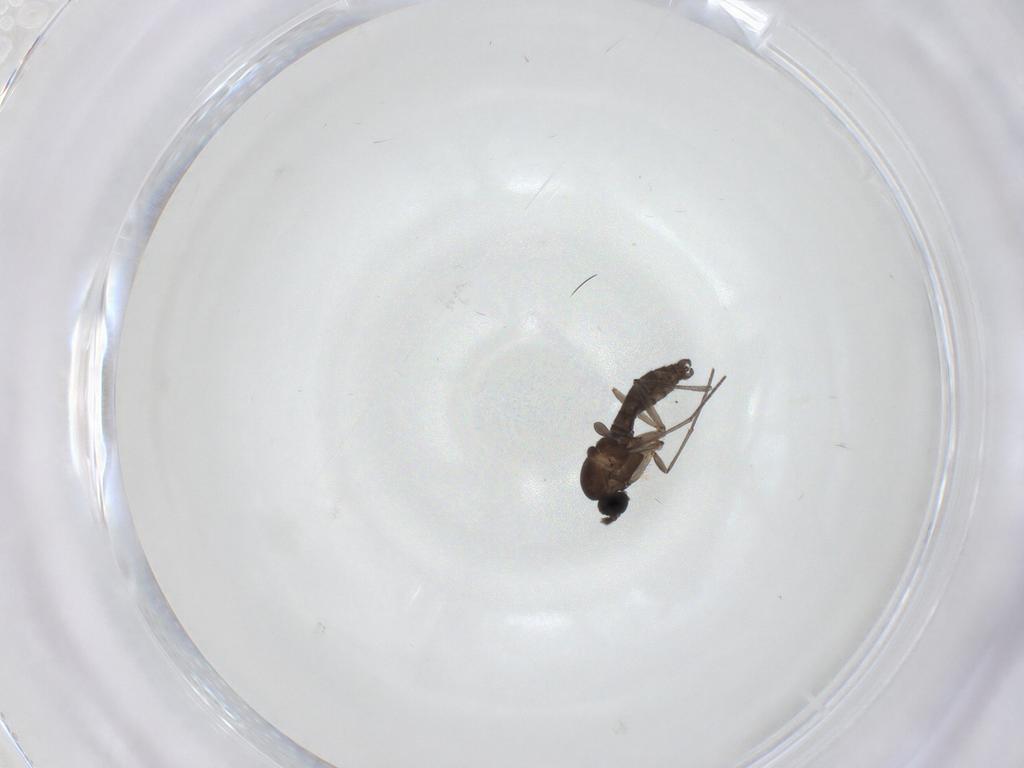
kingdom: Animalia
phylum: Arthropoda
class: Insecta
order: Diptera
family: Sciaridae
